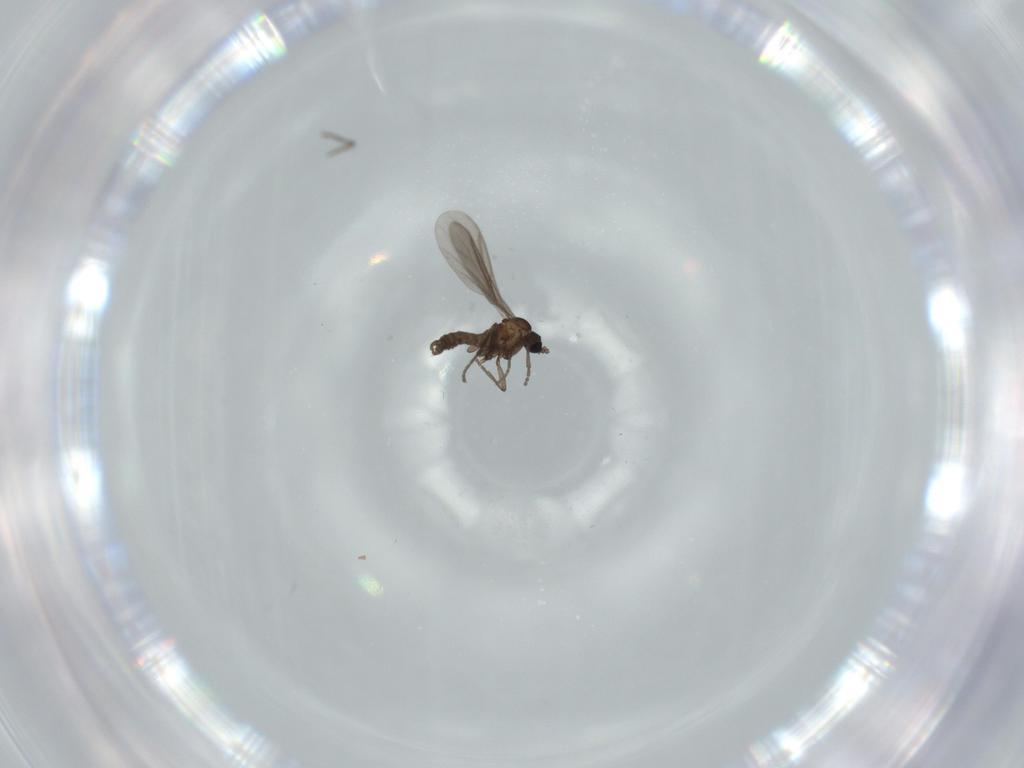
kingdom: Animalia
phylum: Arthropoda
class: Insecta
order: Diptera
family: Sciaridae
